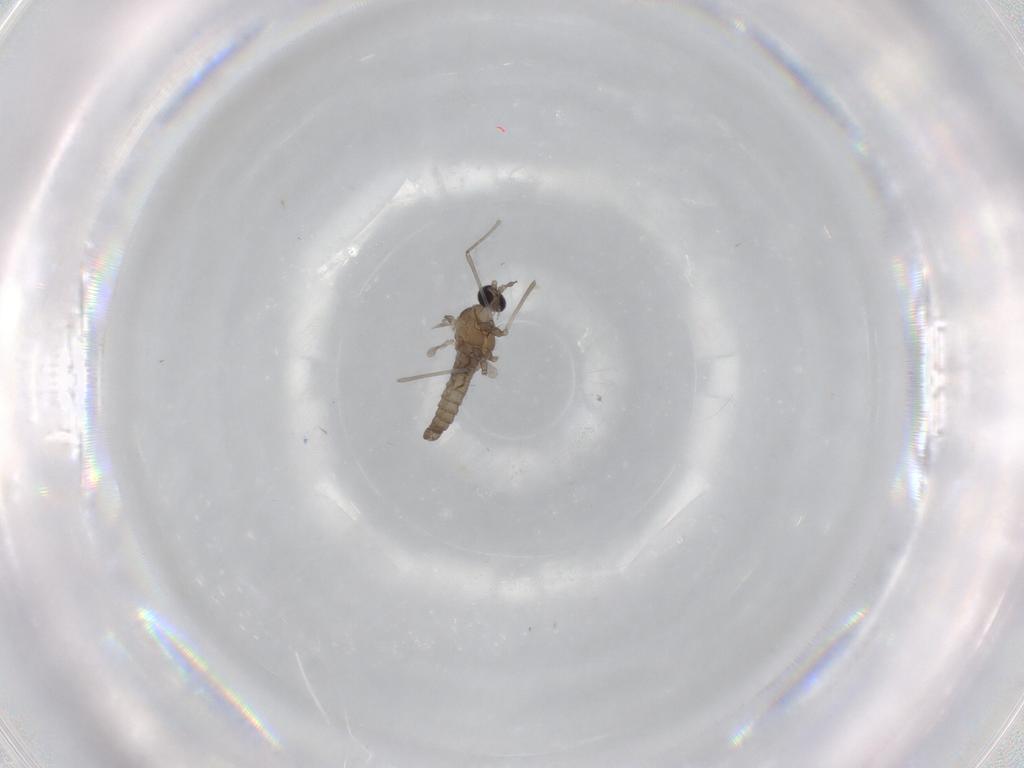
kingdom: Animalia
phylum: Arthropoda
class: Insecta
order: Diptera
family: Cecidomyiidae
